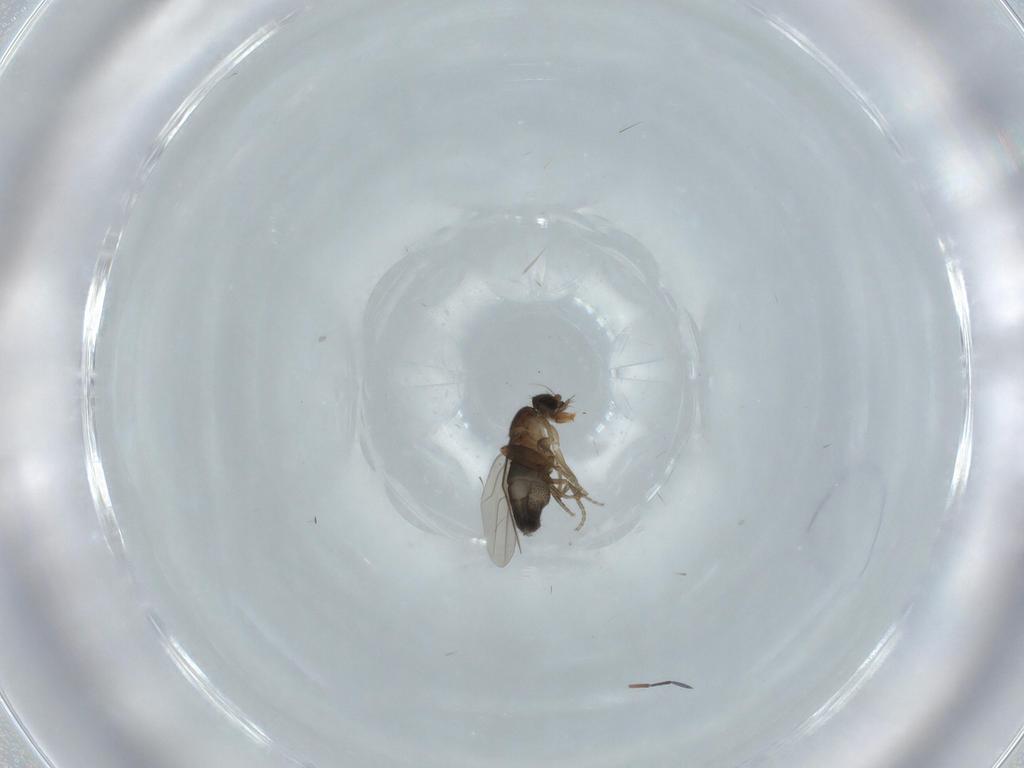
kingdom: Animalia
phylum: Arthropoda
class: Insecta
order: Diptera
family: Phoridae
